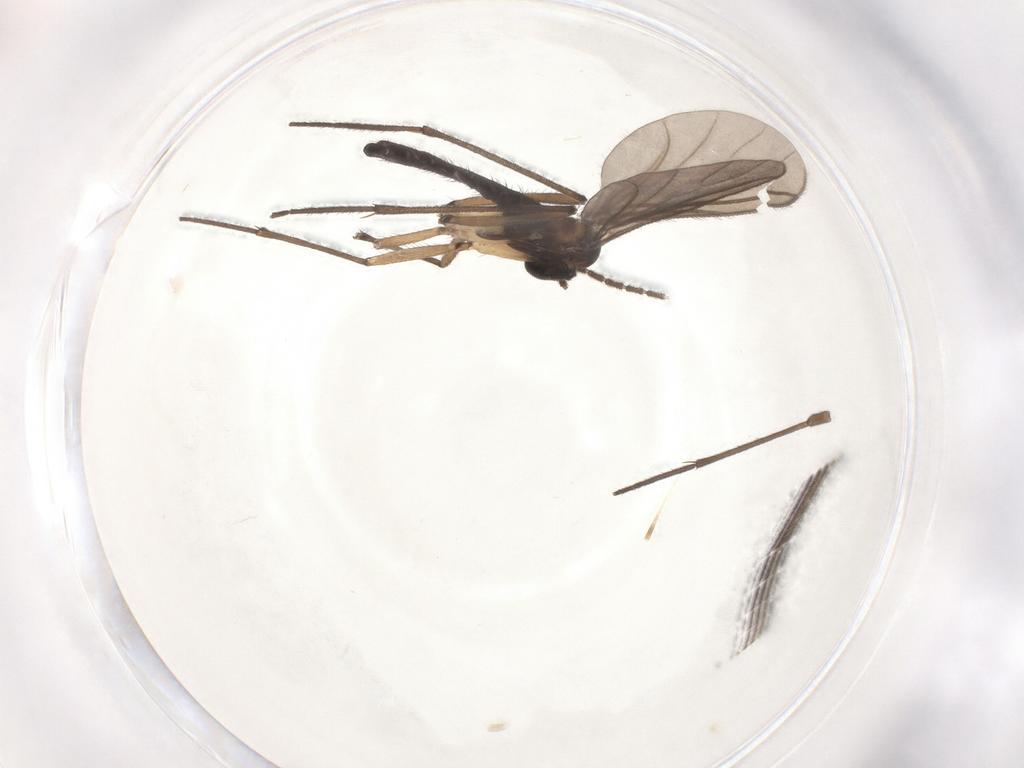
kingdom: Animalia
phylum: Arthropoda
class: Insecta
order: Diptera
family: Sciaridae
